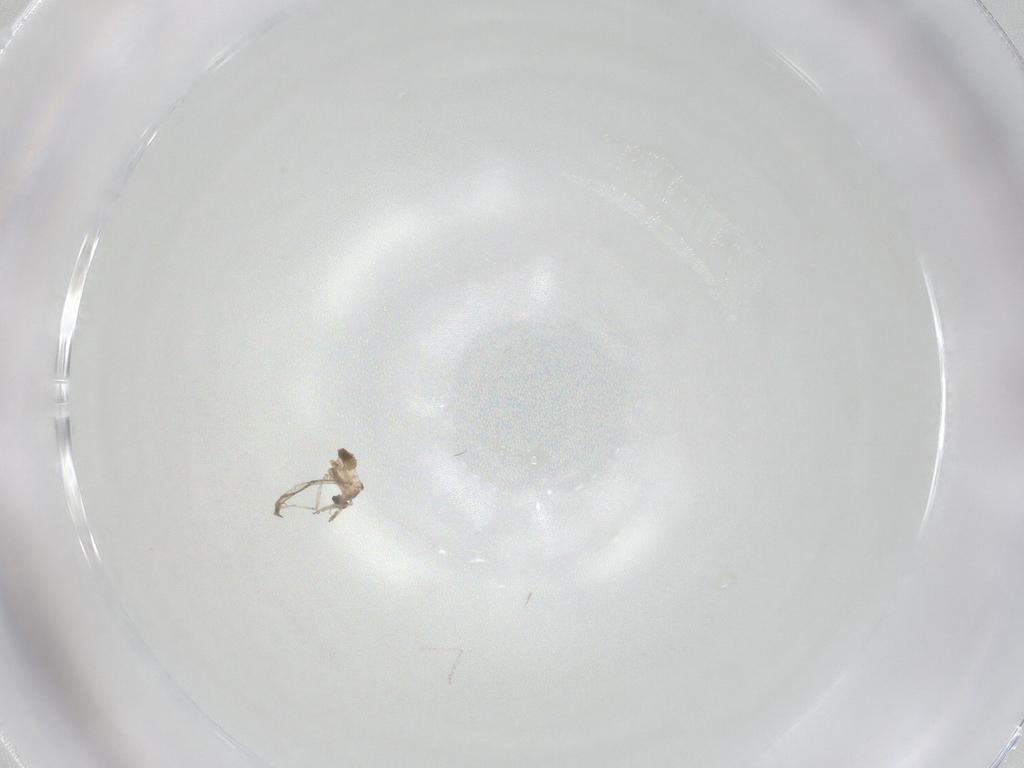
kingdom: Animalia
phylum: Arthropoda
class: Insecta
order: Diptera
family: Cecidomyiidae
